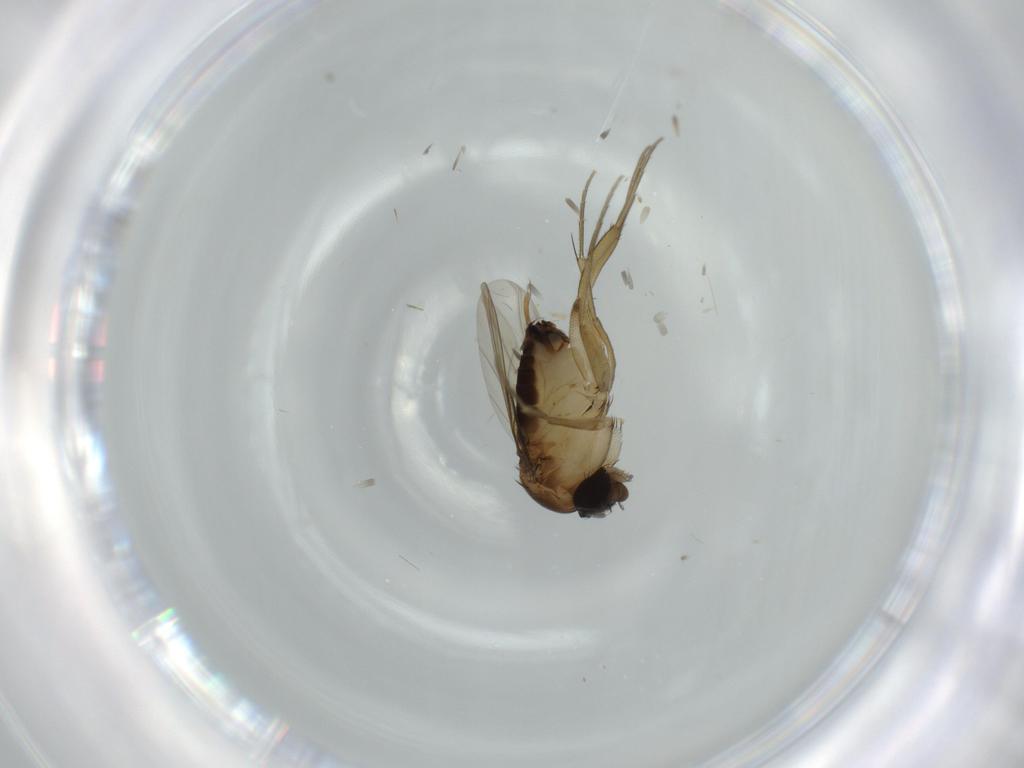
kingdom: Animalia
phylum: Arthropoda
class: Insecta
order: Diptera
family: Phoridae
